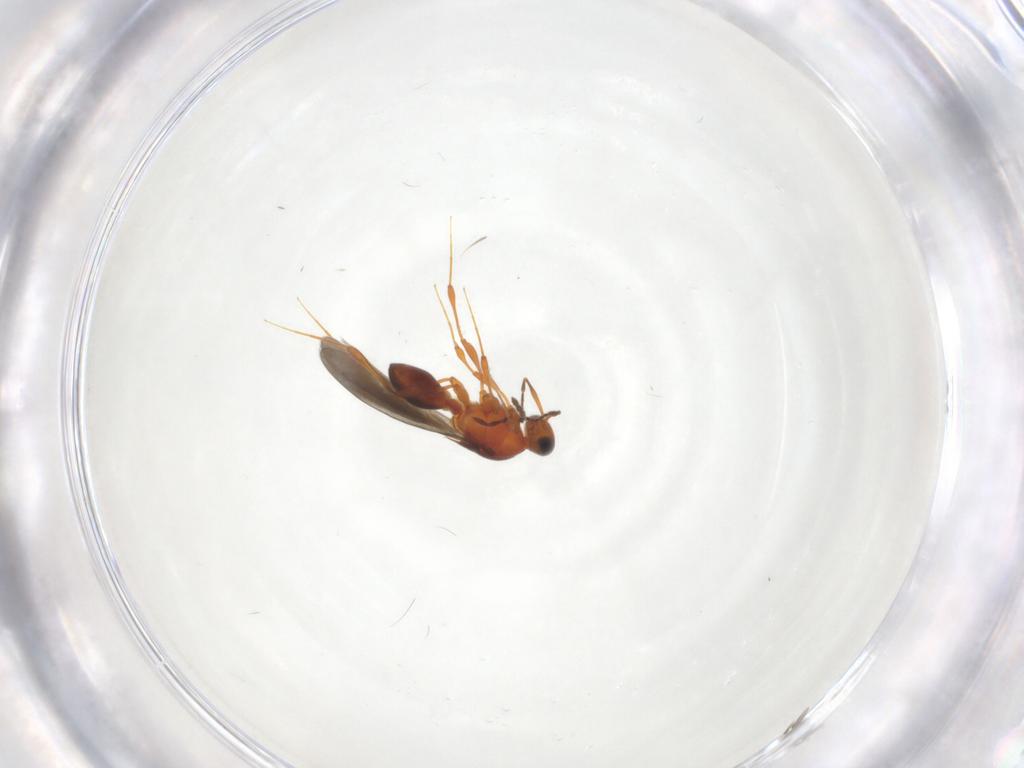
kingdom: Animalia
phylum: Arthropoda
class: Insecta
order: Hymenoptera
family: Platygastridae
